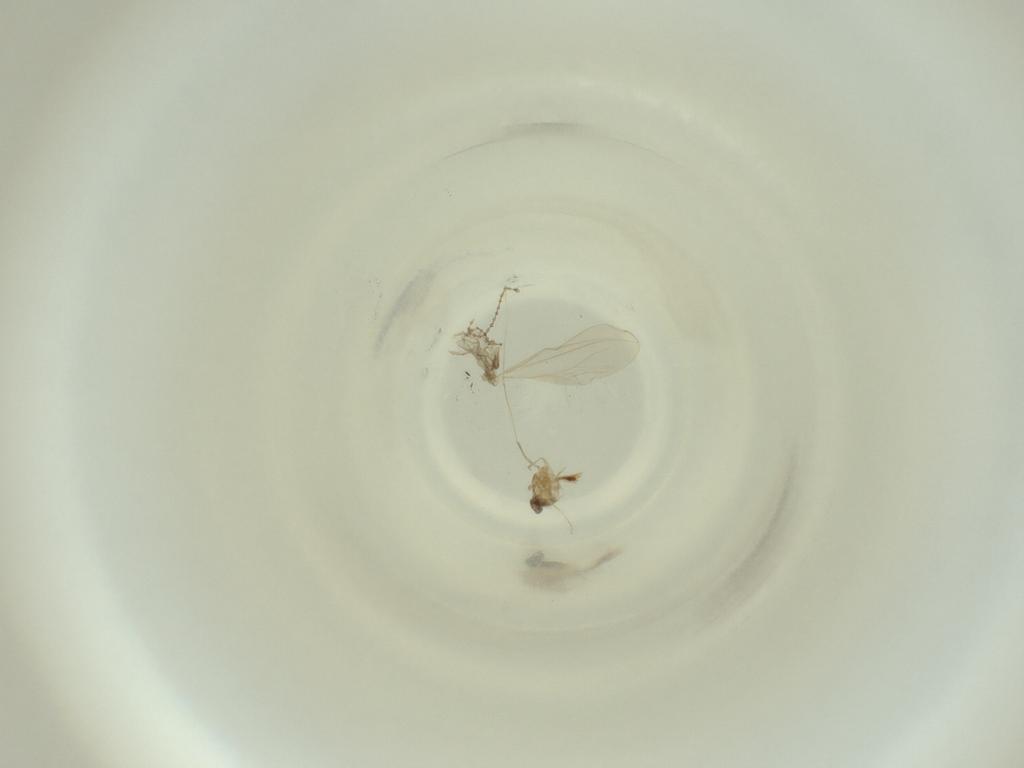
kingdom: Animalia
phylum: Arthropoda
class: Insecta
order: Diptera
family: Cecidomyiidae
